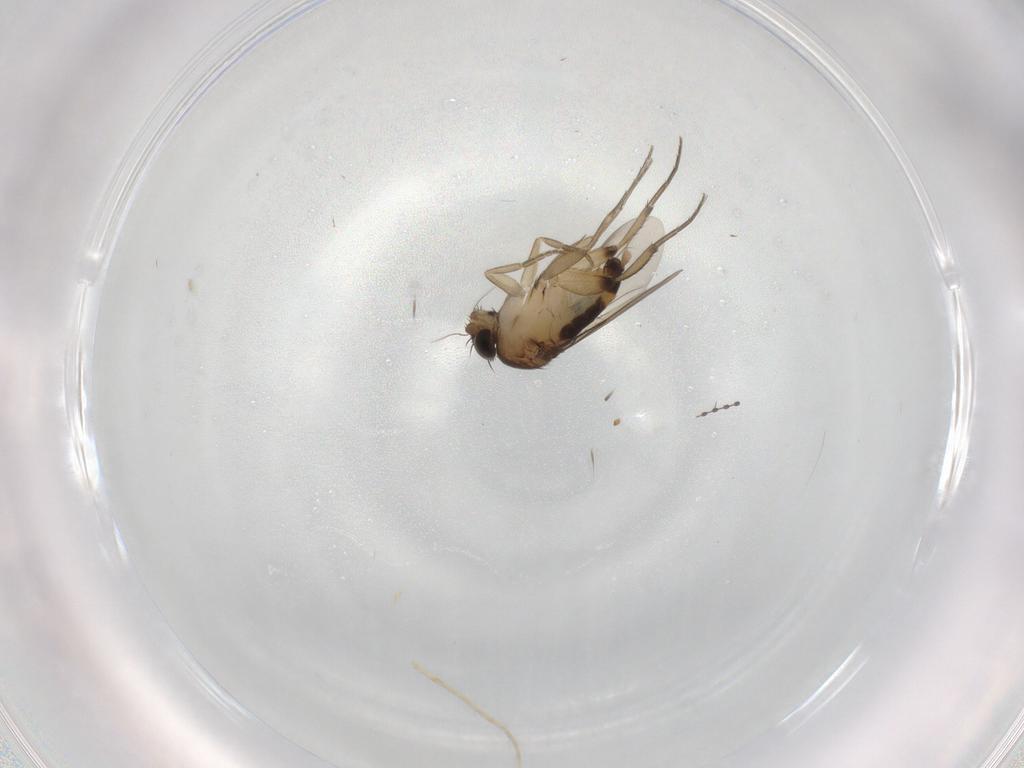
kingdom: Animalia
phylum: Arthropoda
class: Insecta
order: Diptera
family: Phoridae
